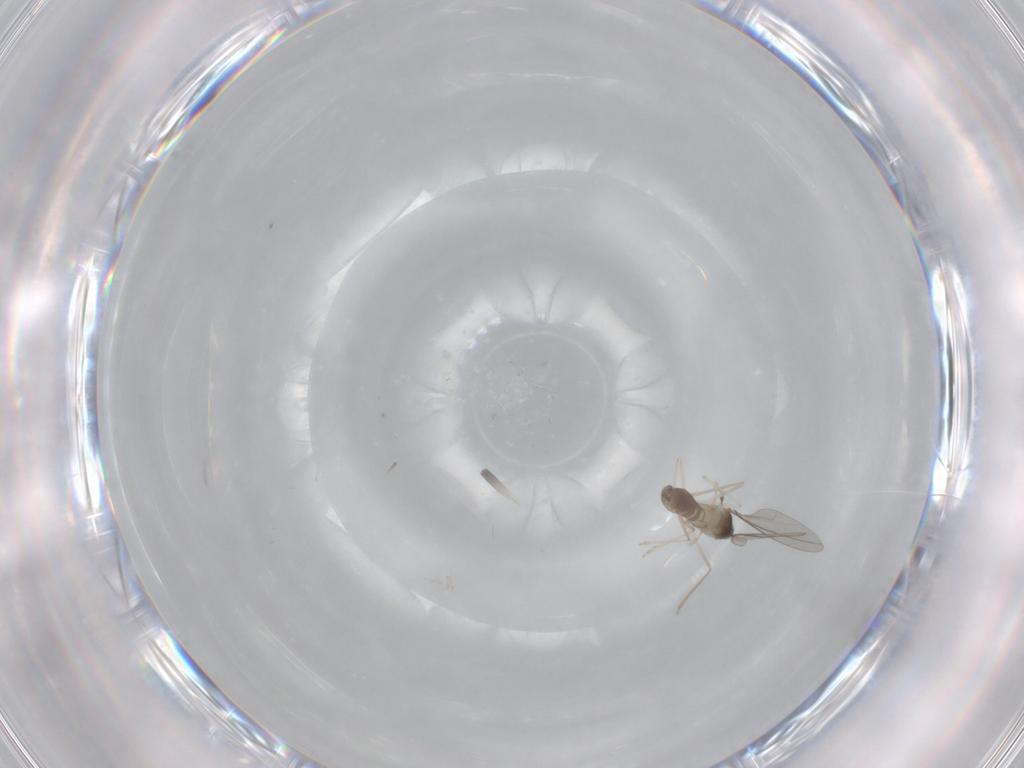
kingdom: Animalia
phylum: Arthropoda
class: Insecta
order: Diptera
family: Cecidomyiidae
